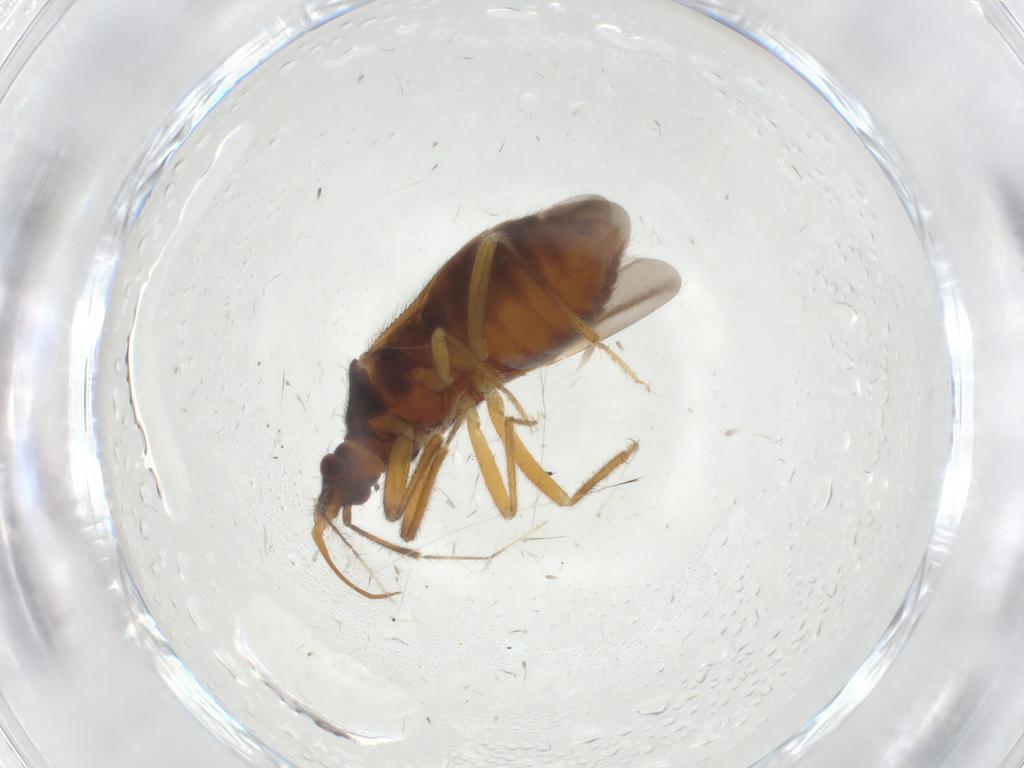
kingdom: Animalia
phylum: Arthropoda
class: Insecta
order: Hemiptera
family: Anthocoridae
